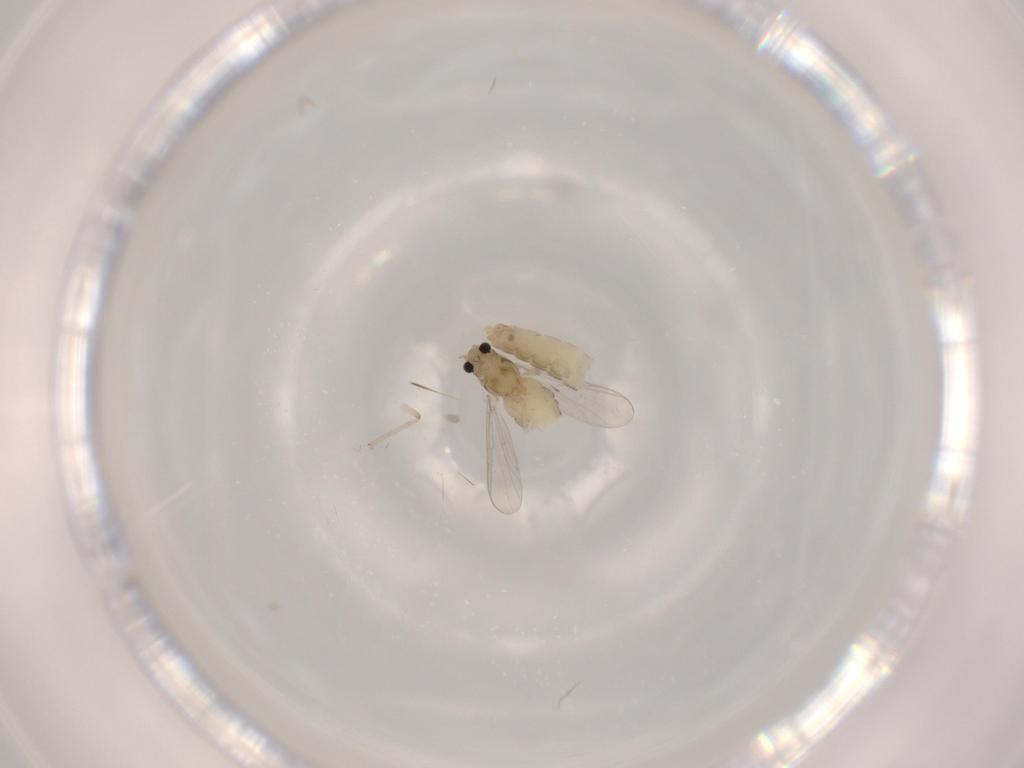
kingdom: Animalia
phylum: Arthropoda
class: Insecta
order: Diptera
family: Chironomidae
